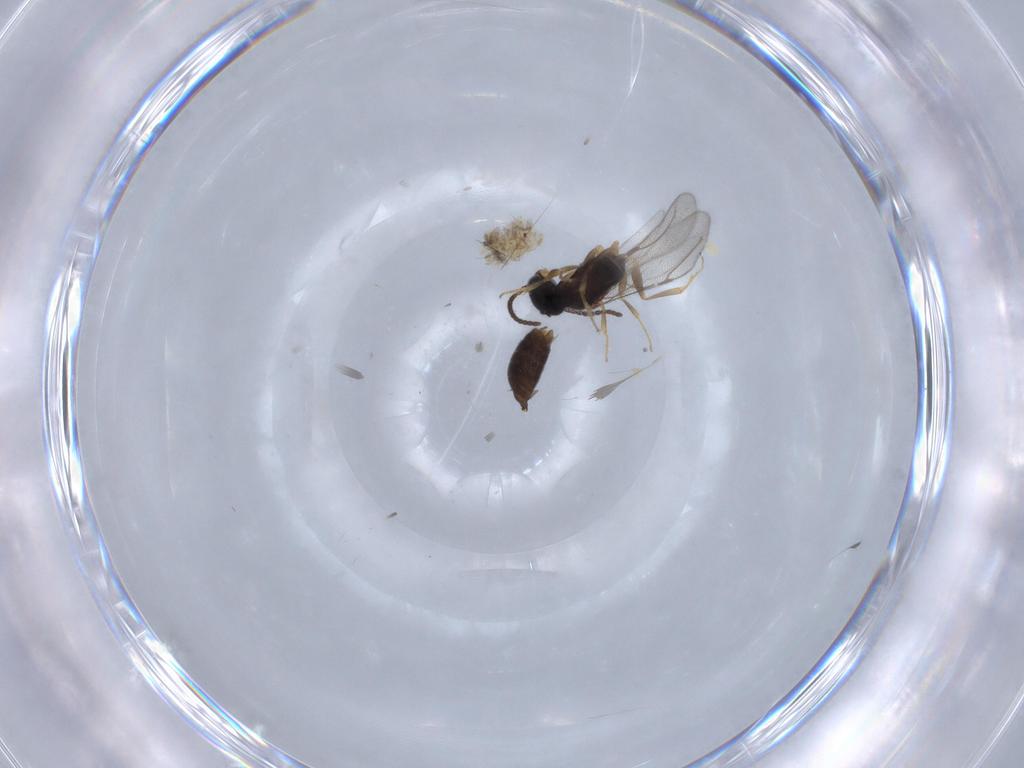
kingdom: Animalia
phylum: Arthropoda
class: Insecta
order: Hymenoptera
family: Bethylidae
